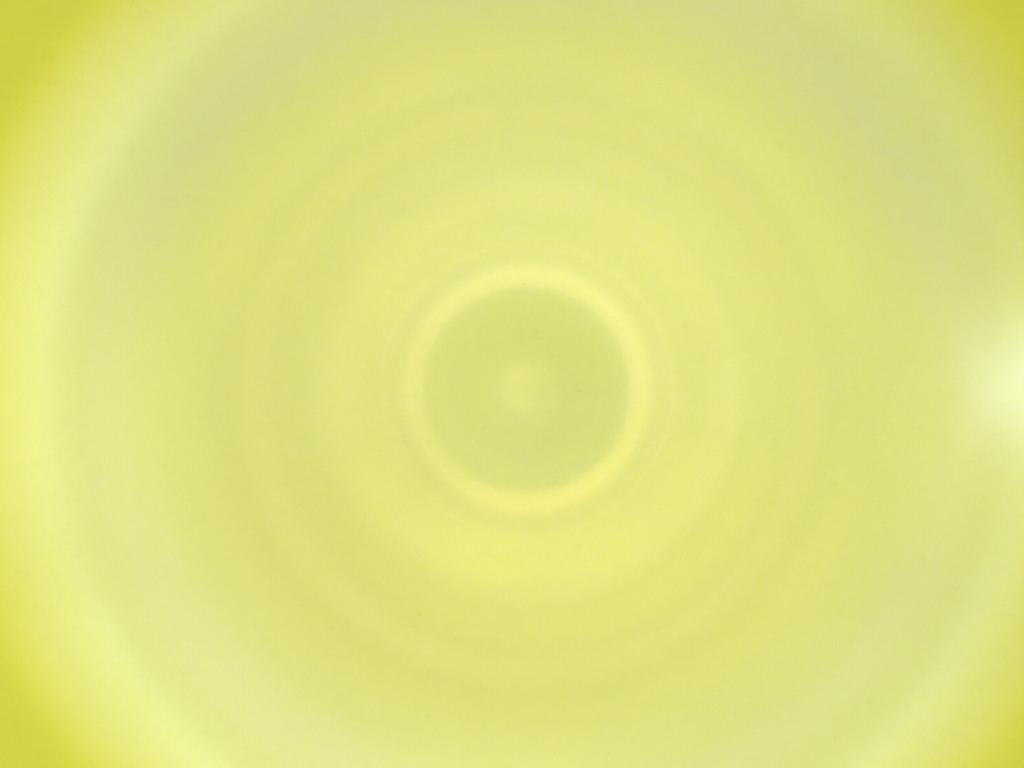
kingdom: Animalia
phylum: Arthropoda
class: Insecta
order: Diptera
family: Cecidomyiidae
